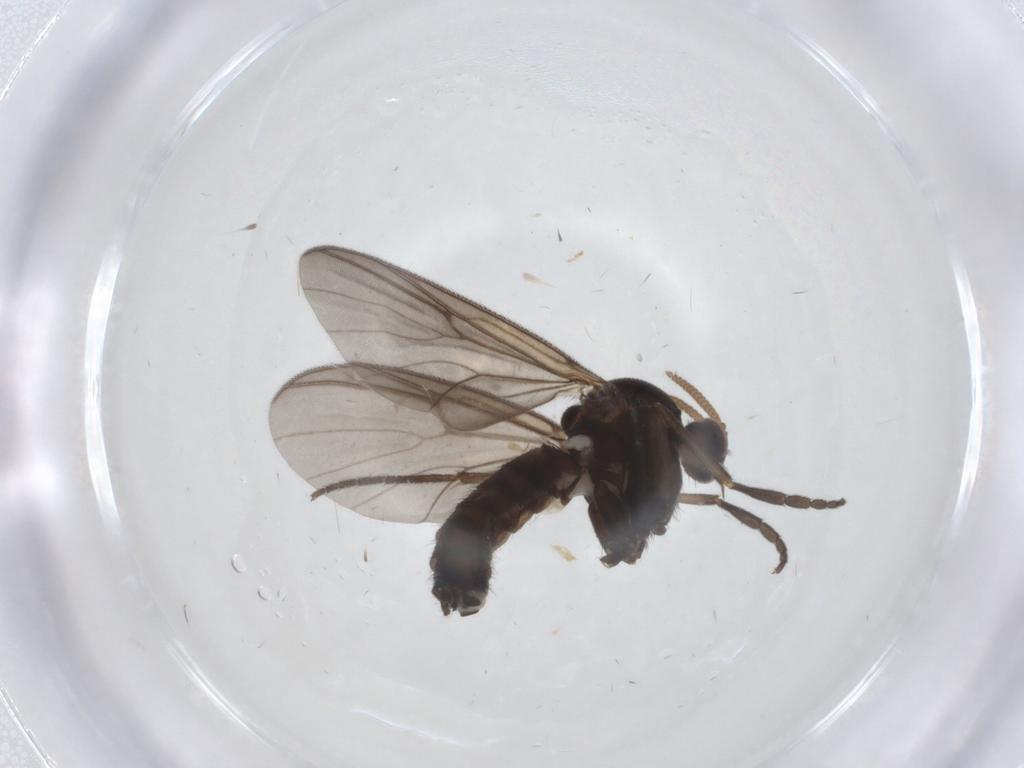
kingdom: Animalia
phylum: Arthropoda
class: Insecta
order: Diptera
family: Mycetophilidae
